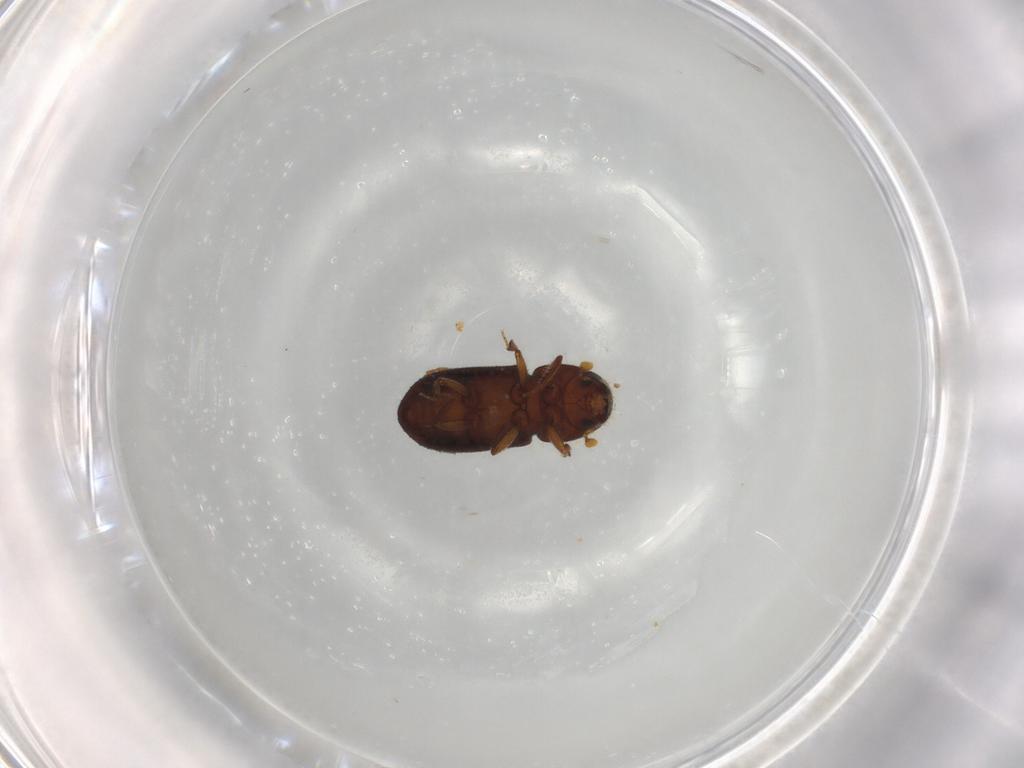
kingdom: Animalia
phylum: Arthropoda
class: Insecta
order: Coleoptera
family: Curculionidae
